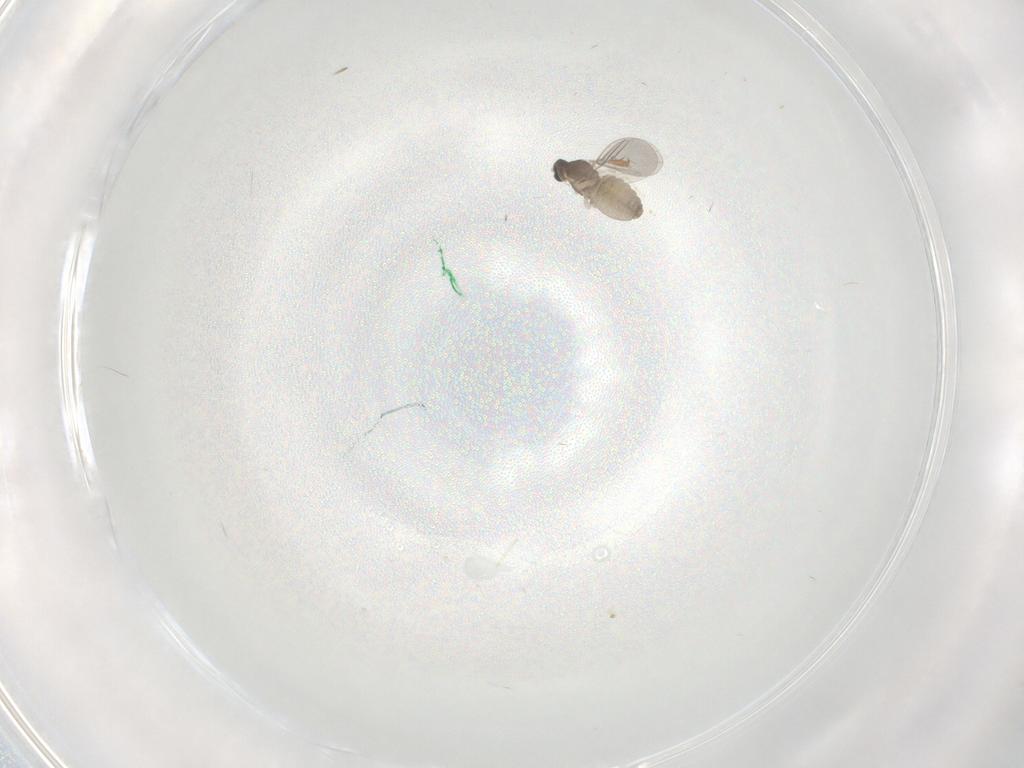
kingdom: Animalia
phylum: Arthropoda
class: Insecta
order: Diptera
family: Cecidomyiidae
